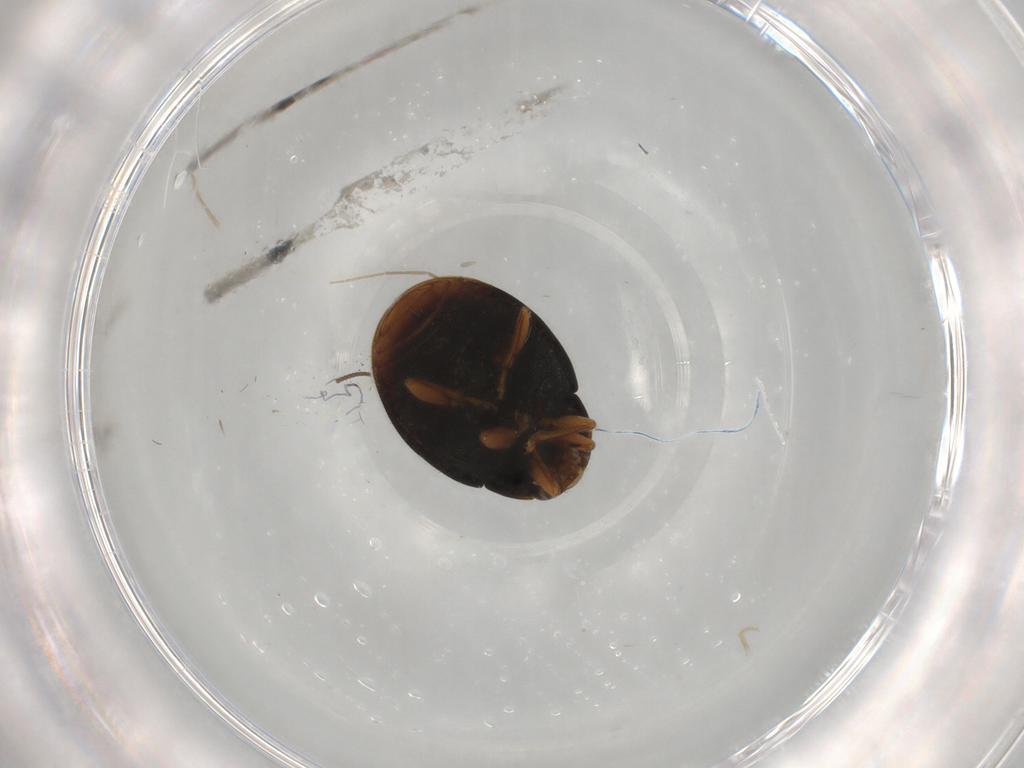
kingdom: Animalia
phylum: Arthropoda
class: Insecta
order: Coleoptera
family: Coccinellidae
